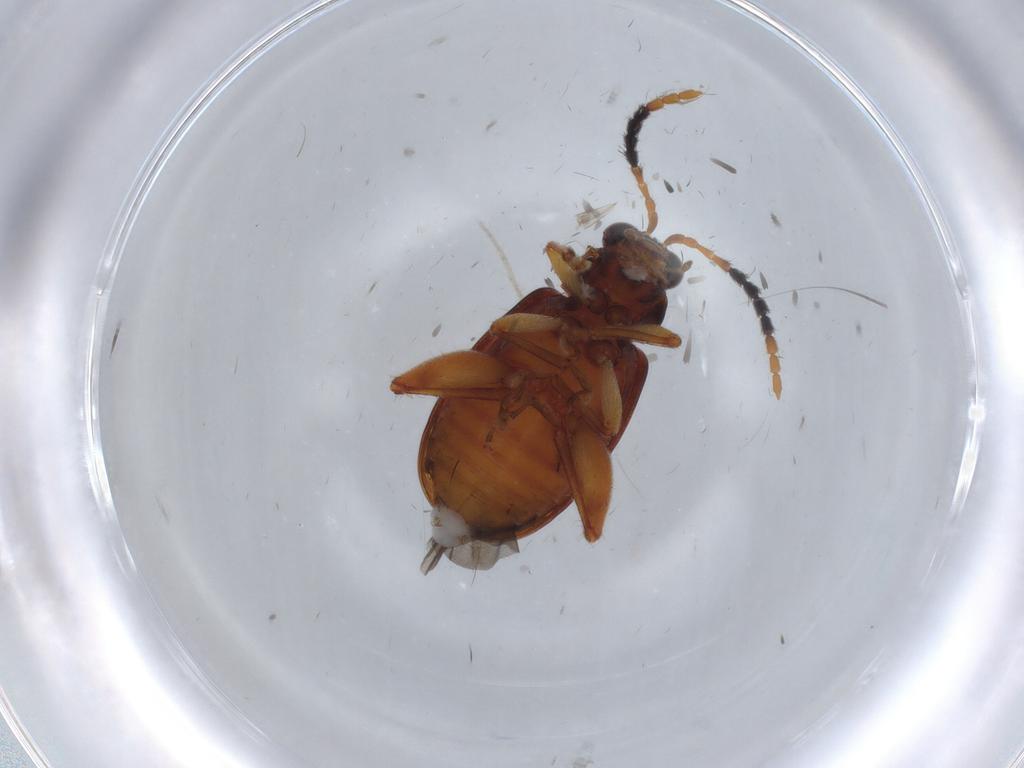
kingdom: Animalia
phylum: Arthropoda
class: Insecta
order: Coleoptera
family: Chrysomelidae
